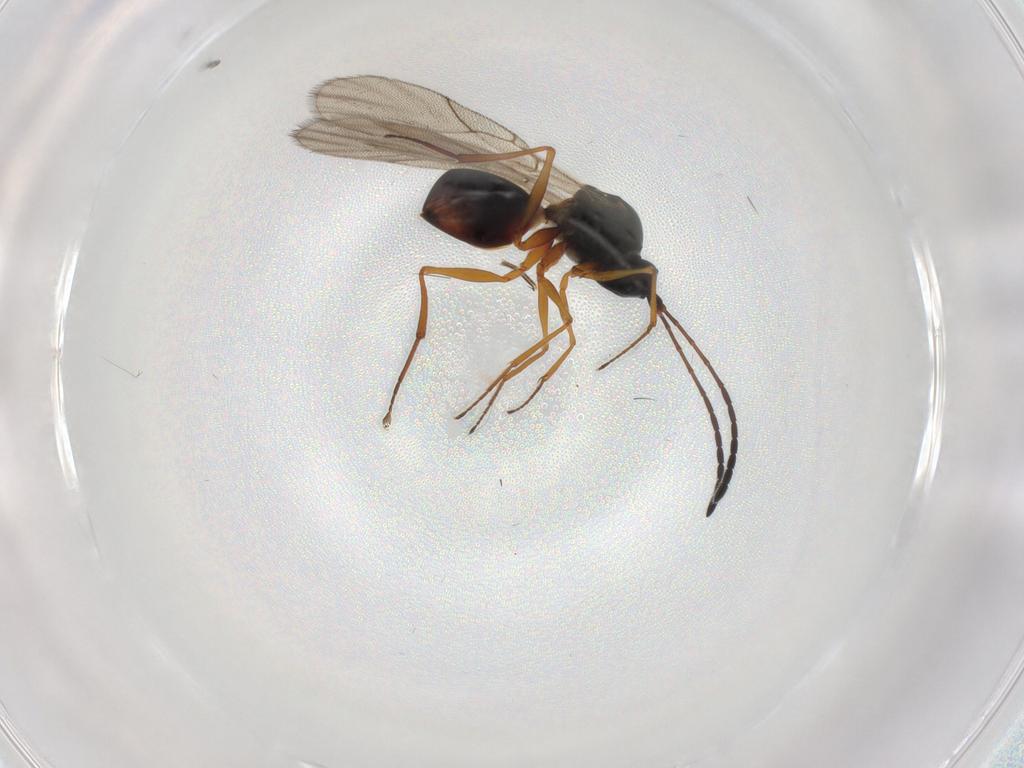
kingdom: Animalia
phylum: Arthropoda
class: Insecta
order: Hymenoptera
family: Figitidae
